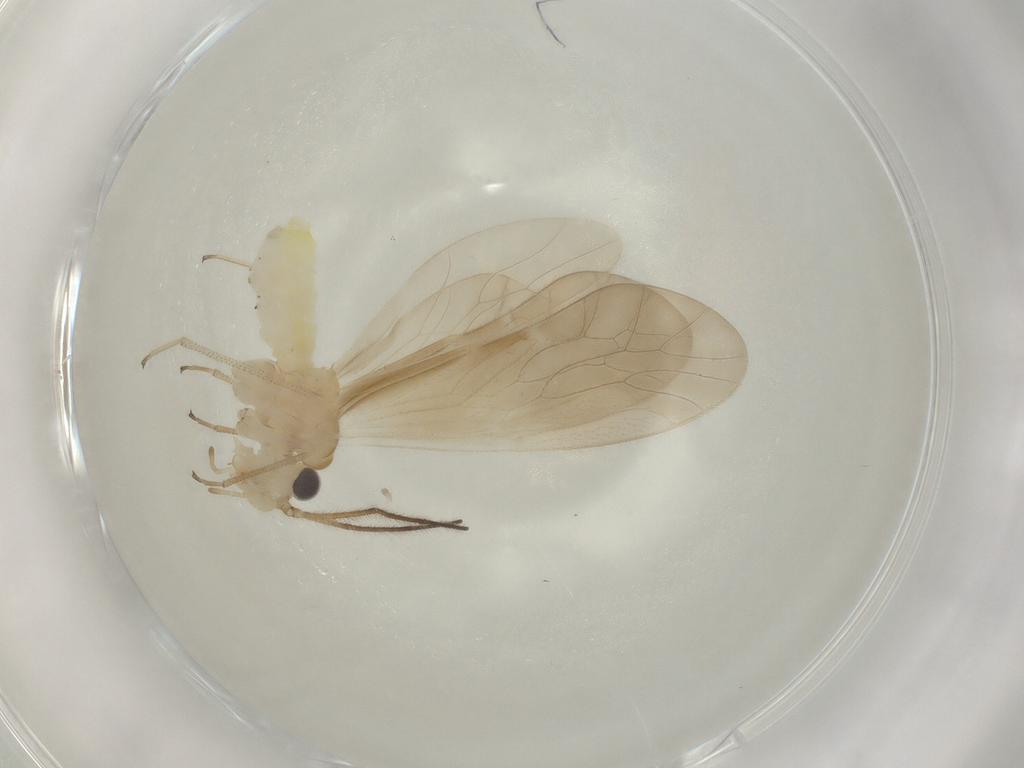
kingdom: Animalia
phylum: Arthropoda
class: Insecta
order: Psocodea
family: Caeciliusidae
